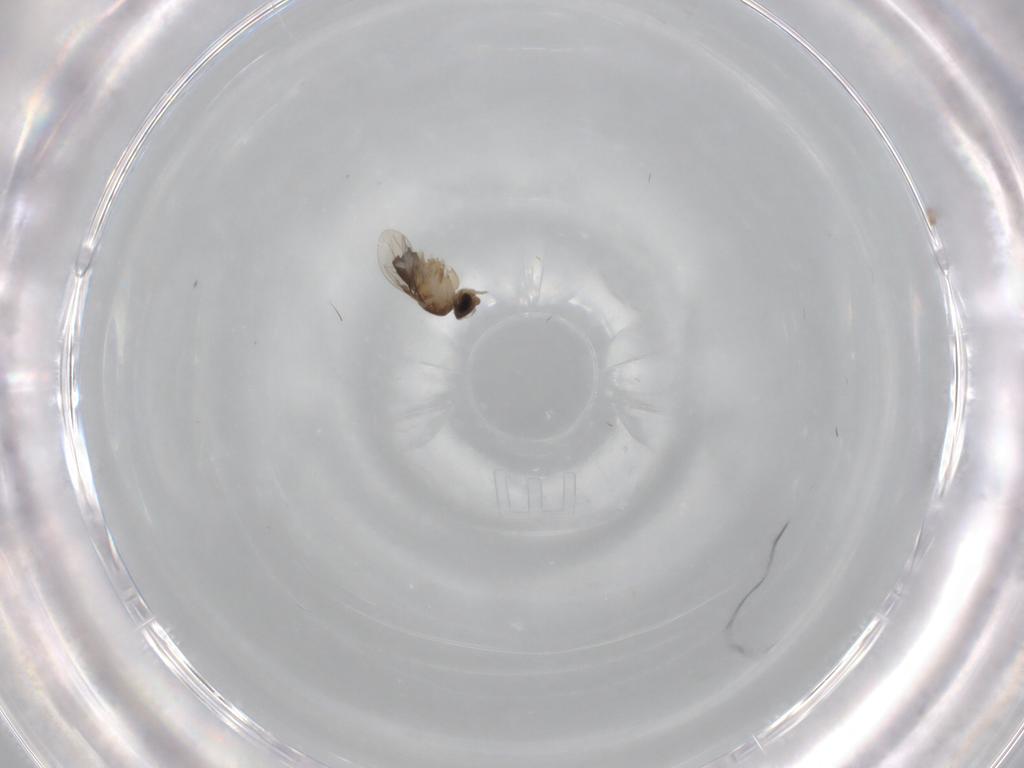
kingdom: Animalia
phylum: Arthropoda
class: Insecta
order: Diptera
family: Phoridae
